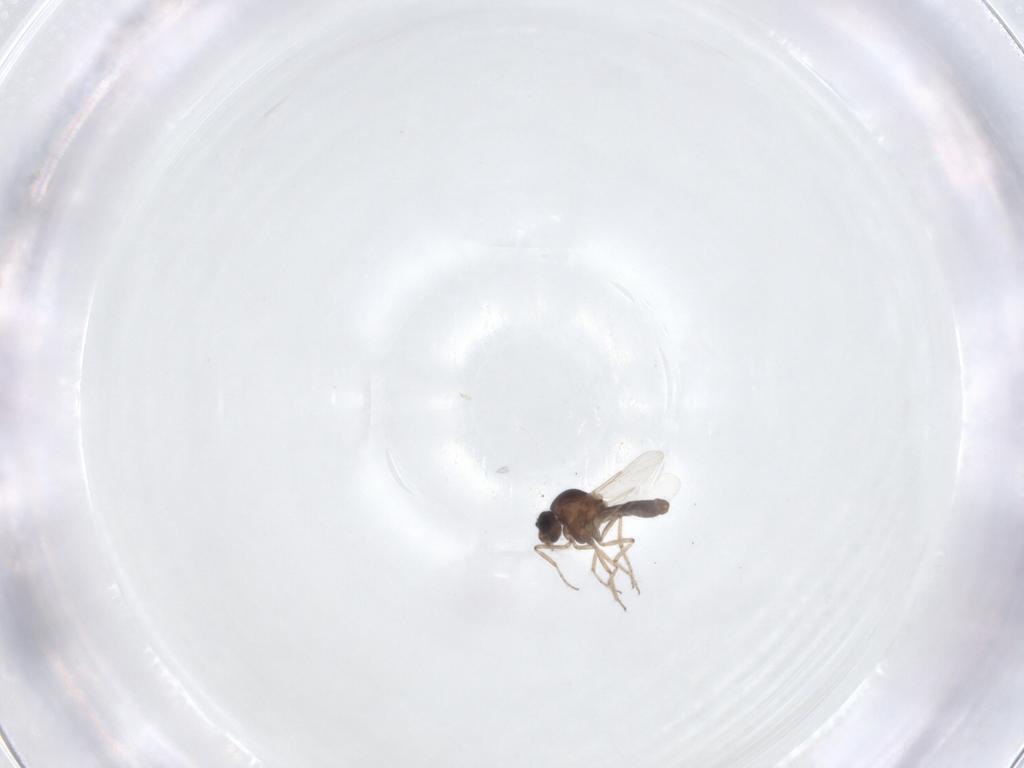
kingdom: Animalia
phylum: Arthropoda
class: Insecta
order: Diptera
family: Ceratopogonidae
